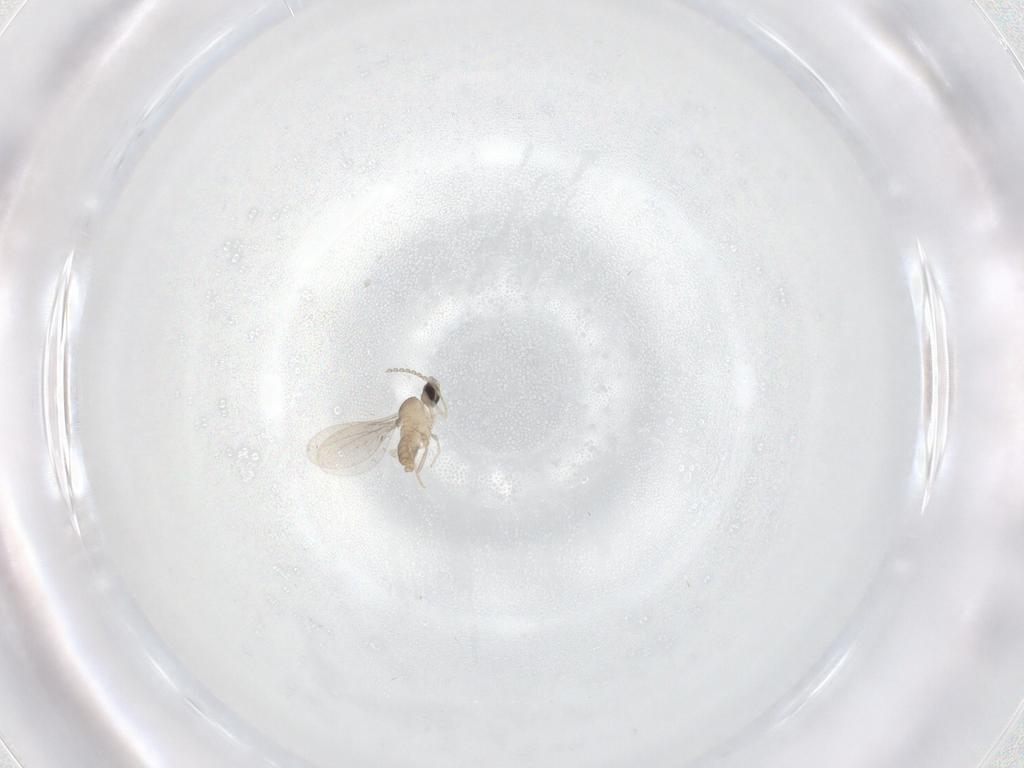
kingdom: Animalia
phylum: Arthropoda
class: Insecta
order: Diptera
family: Cecidomyiidae
